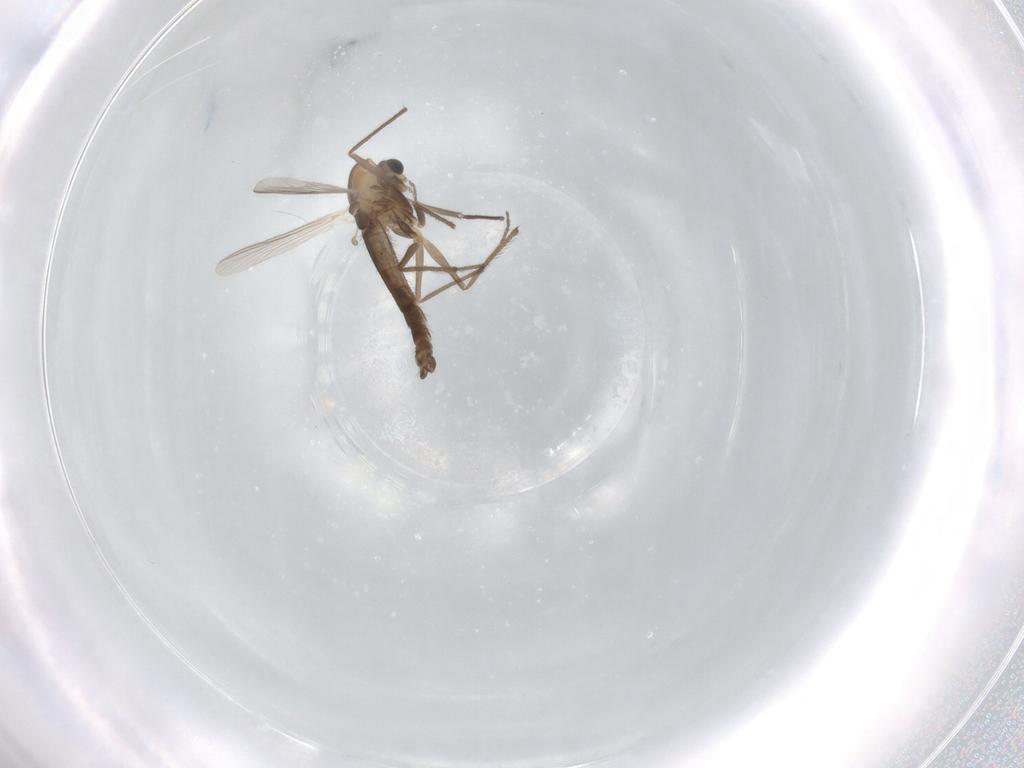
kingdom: Animalia
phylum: Arthropoda
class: Insecta
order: Diptera
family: Chironomidae
